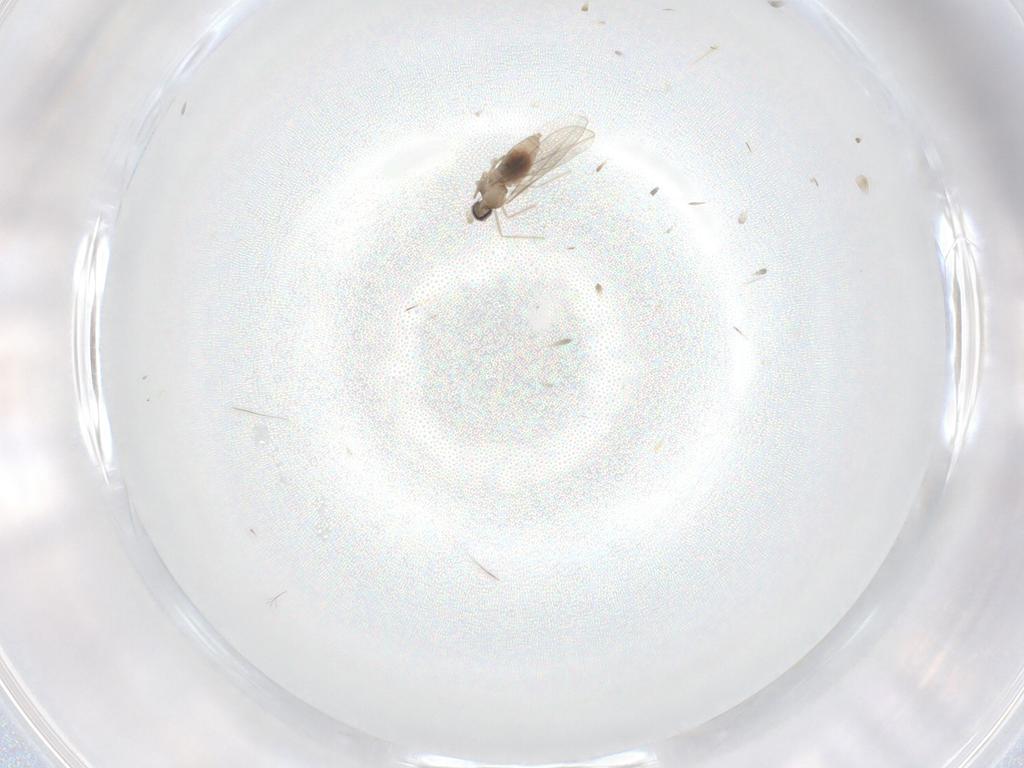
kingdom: Animalia
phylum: Arthropoda
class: Insecta
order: Diptera
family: Cecidomyiidae
